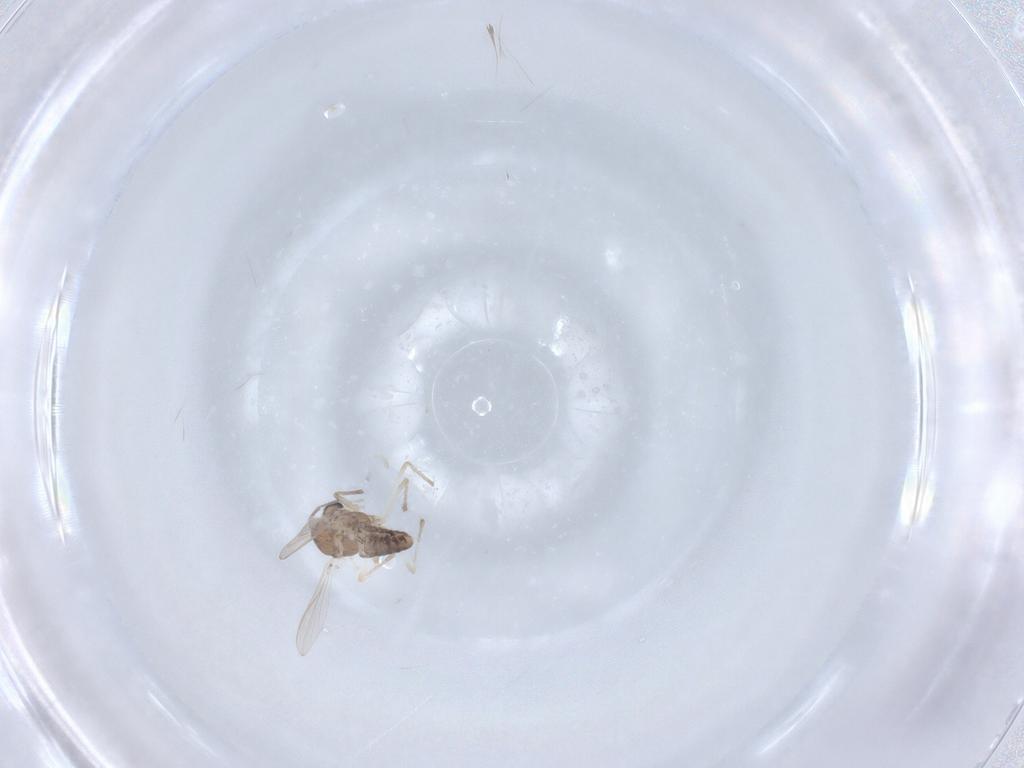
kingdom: Animalia
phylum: Arthropoda
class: Insecta
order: Diptera
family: Chironomidae
